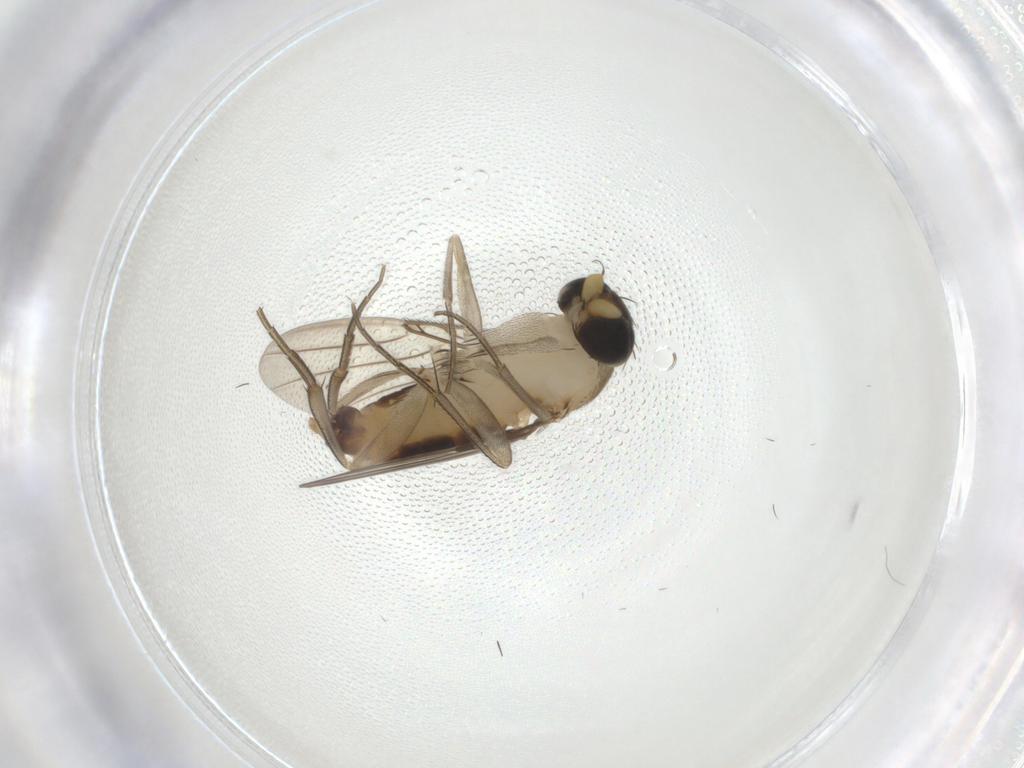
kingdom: Animalia
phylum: Arthropoda
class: Insecta
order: Diptera
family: Phoridae
